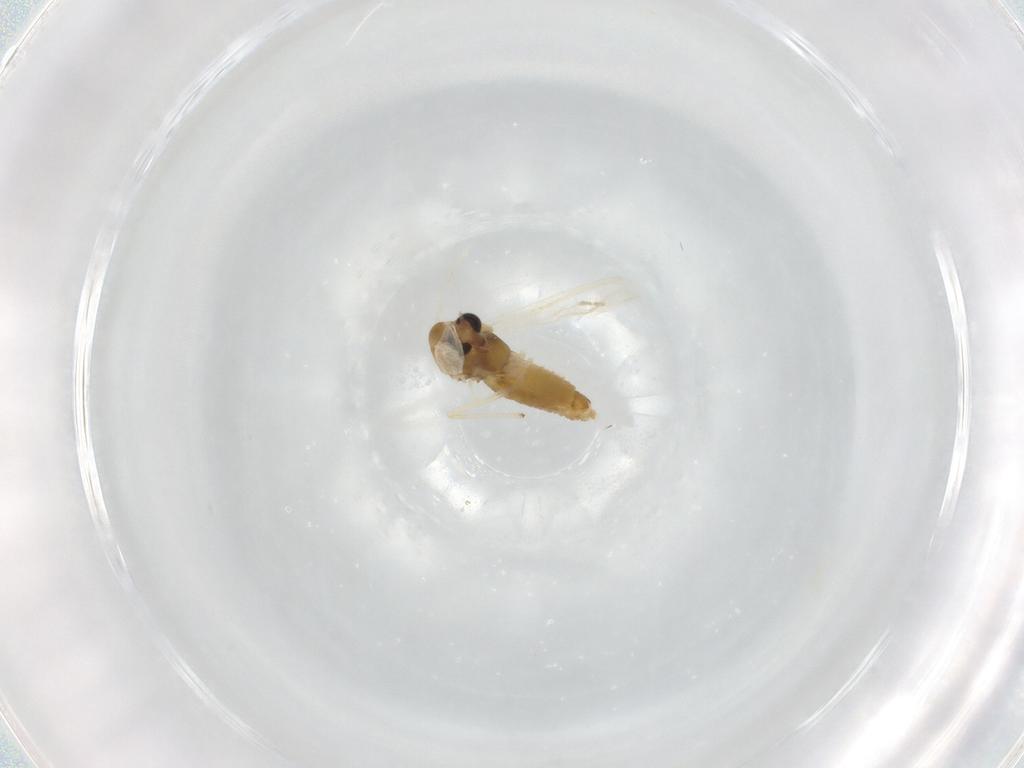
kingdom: Animalia
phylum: Arthropoda
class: Insecta
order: Diptera
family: Chironomidae
